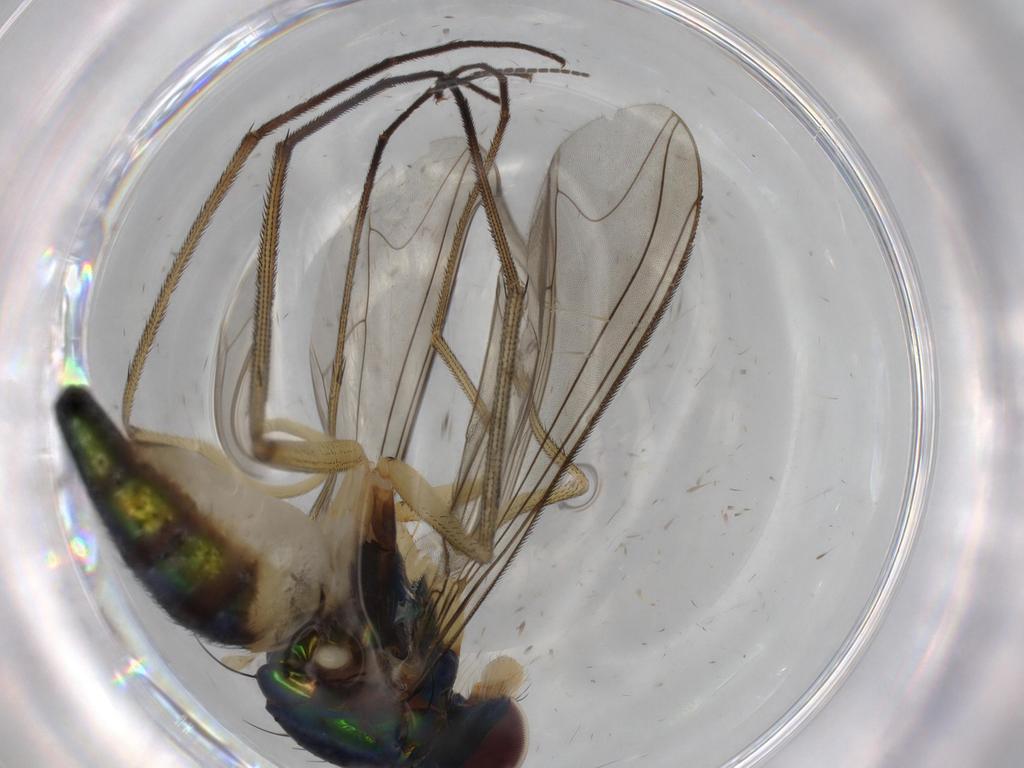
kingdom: Animalia
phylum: Arthropoda
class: Insecta
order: Diptera
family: Dolichopodidae
